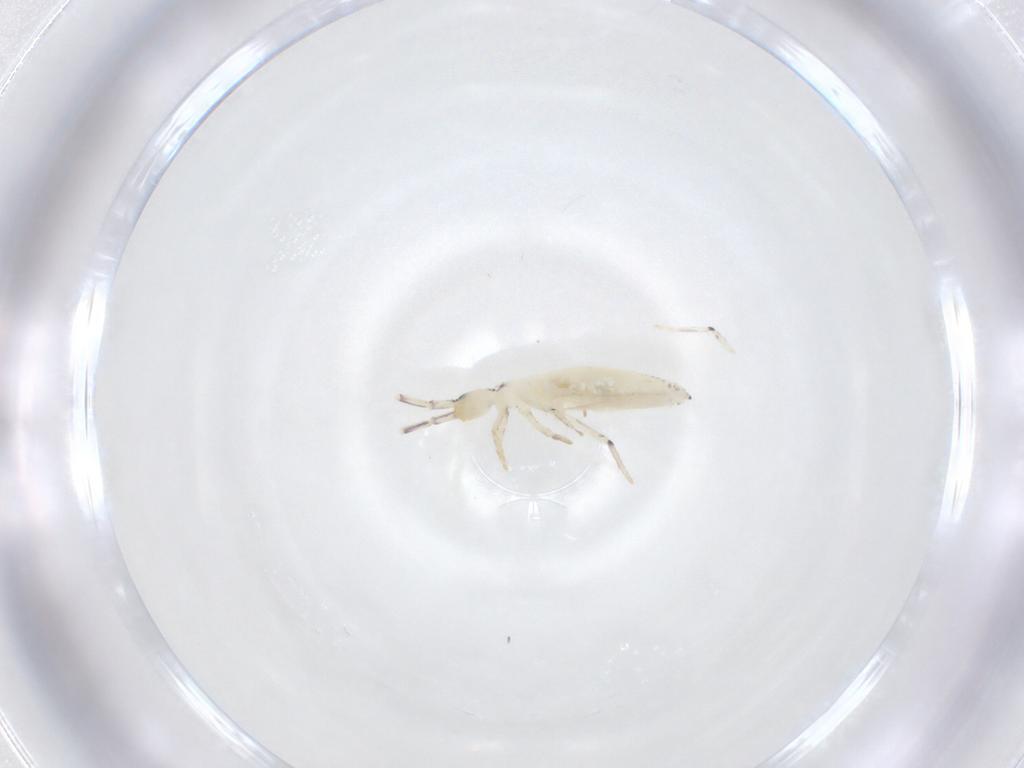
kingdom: Animalia
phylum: Arthropoda
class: Collembola
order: Entomobryomorpha
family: Entomobryidae
